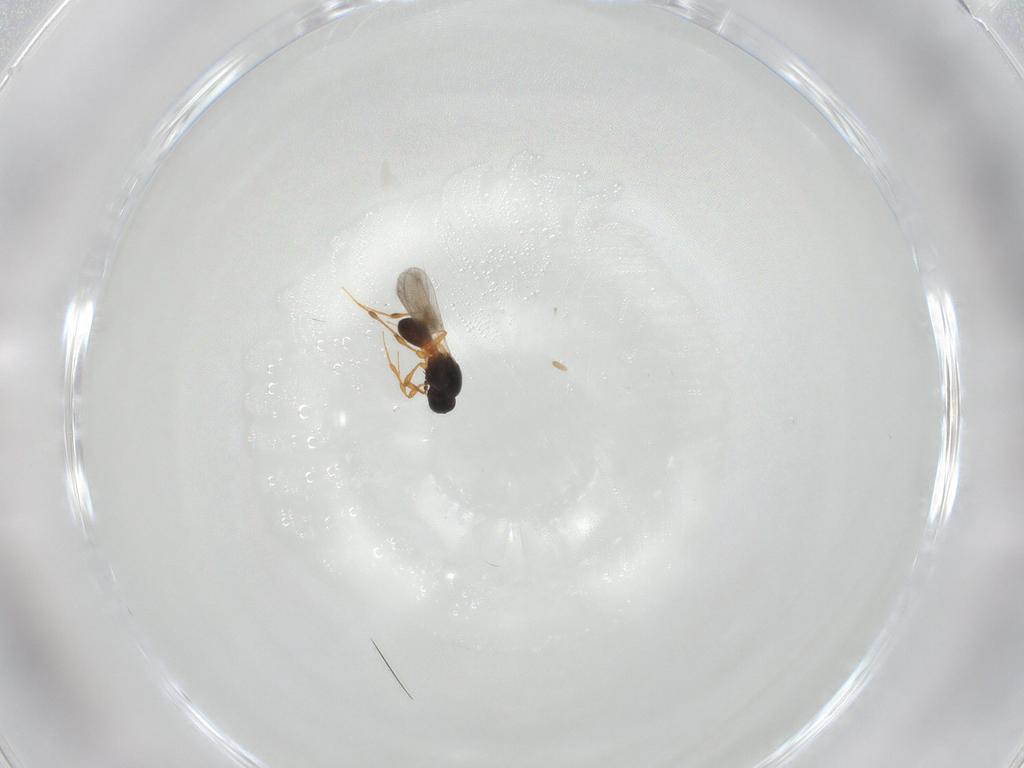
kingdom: Animalia
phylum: Arthropoda
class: Insecta
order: Hymenoptera
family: Platygastridae
